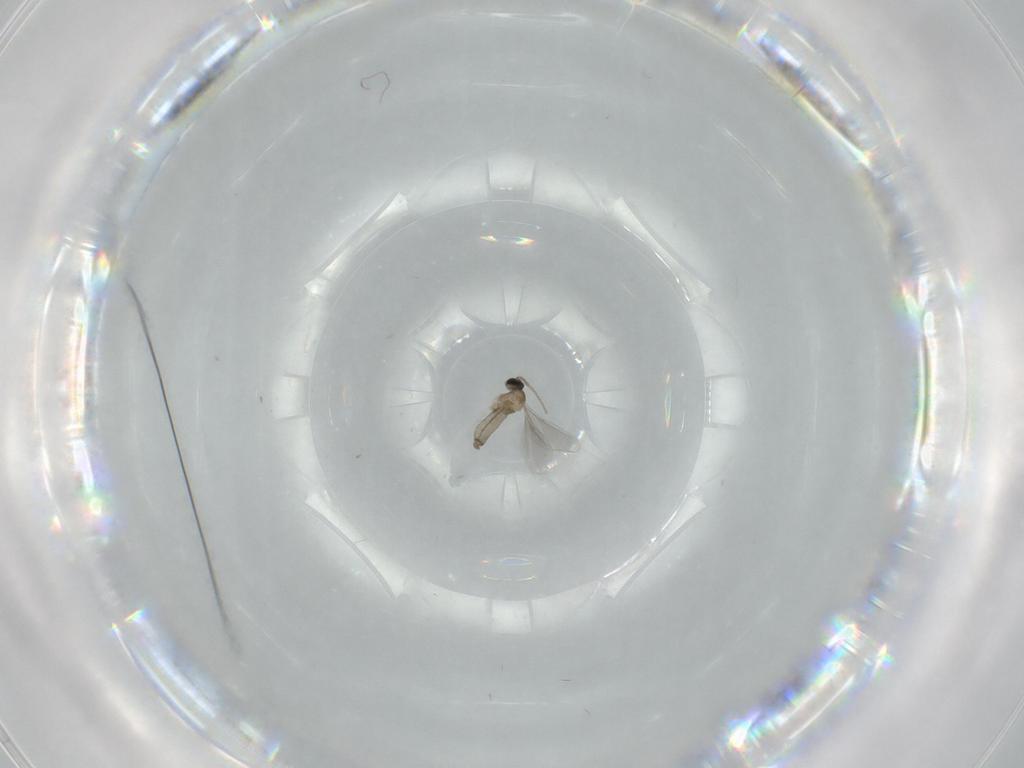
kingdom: Animalia
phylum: Arthropoda
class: Insecta
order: Diptera
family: Cecidomyiidae
